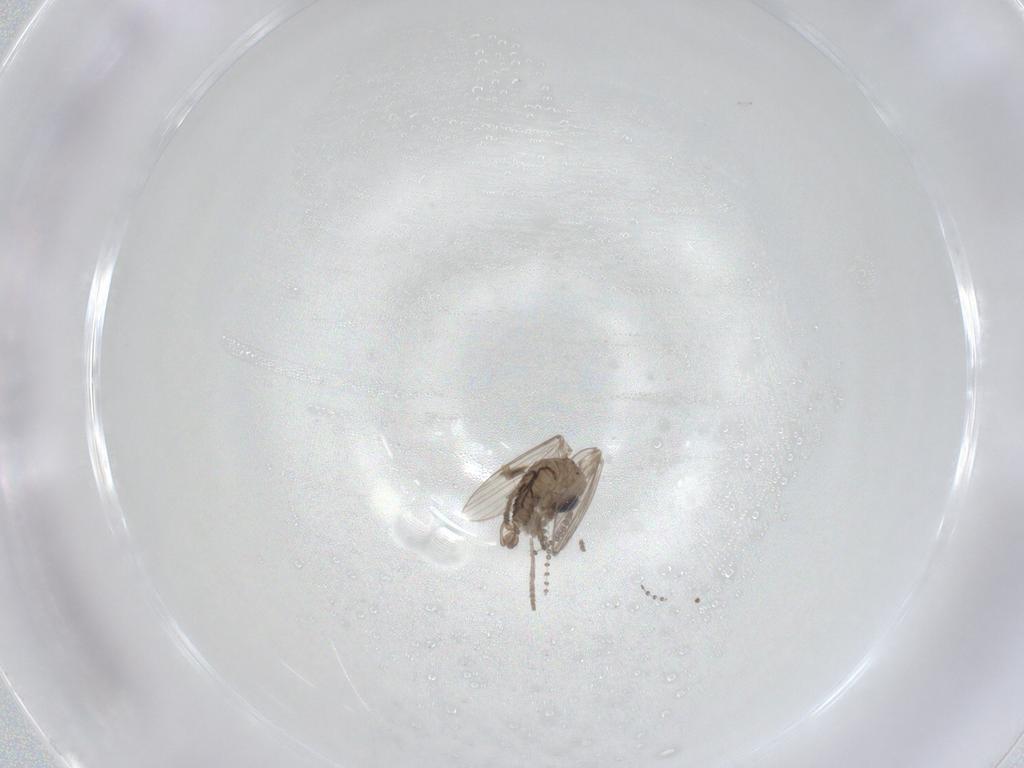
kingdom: Animalia
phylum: Arthropoda
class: Insecta
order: Diptera
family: Psychodidae
